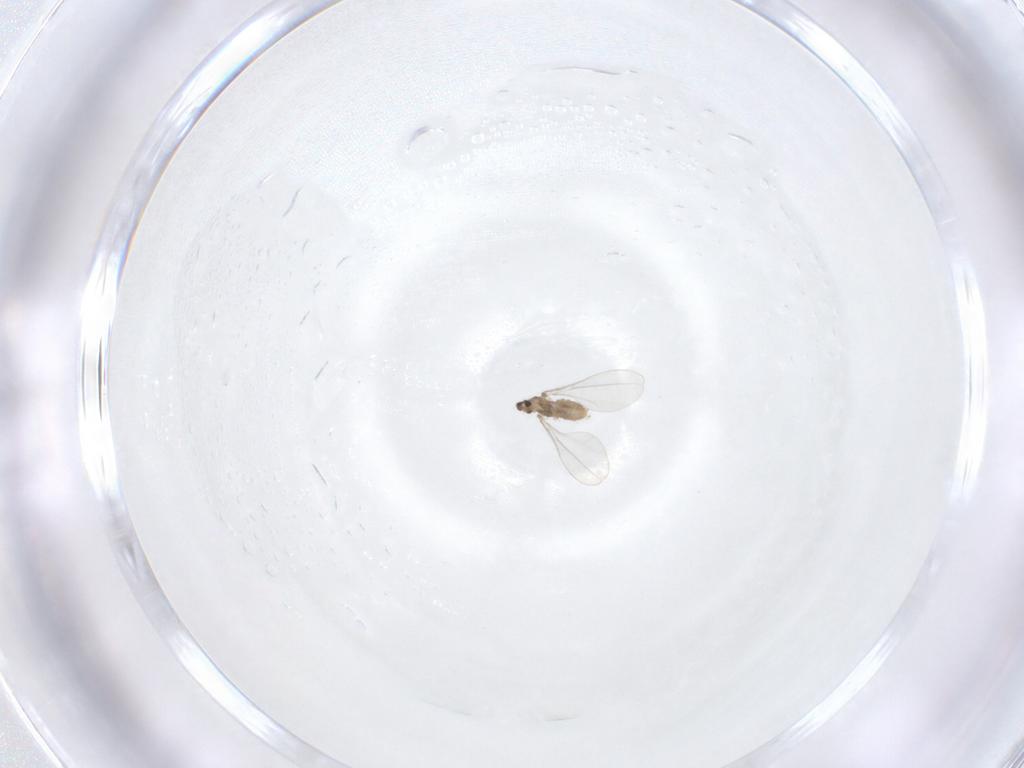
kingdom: Animalia
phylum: Arthropoda
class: Insecta
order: Diptera
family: Cecidomyiidae
